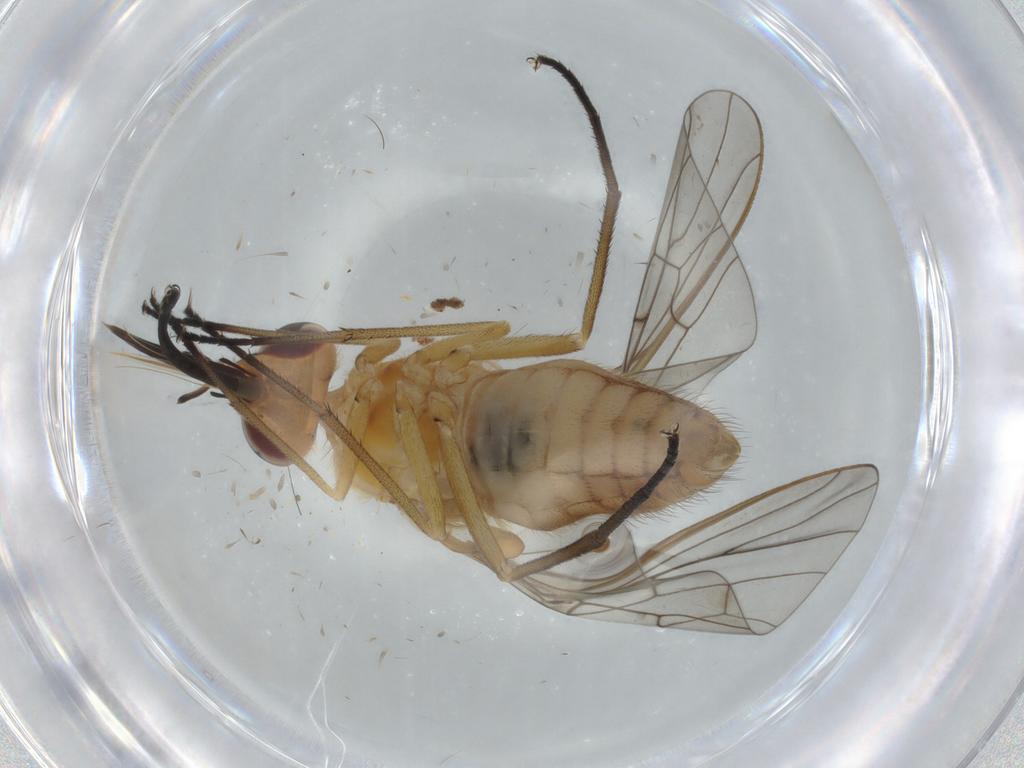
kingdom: Animalia
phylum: Arthropoda
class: Insecta
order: Diptera
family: Bombyliidae
